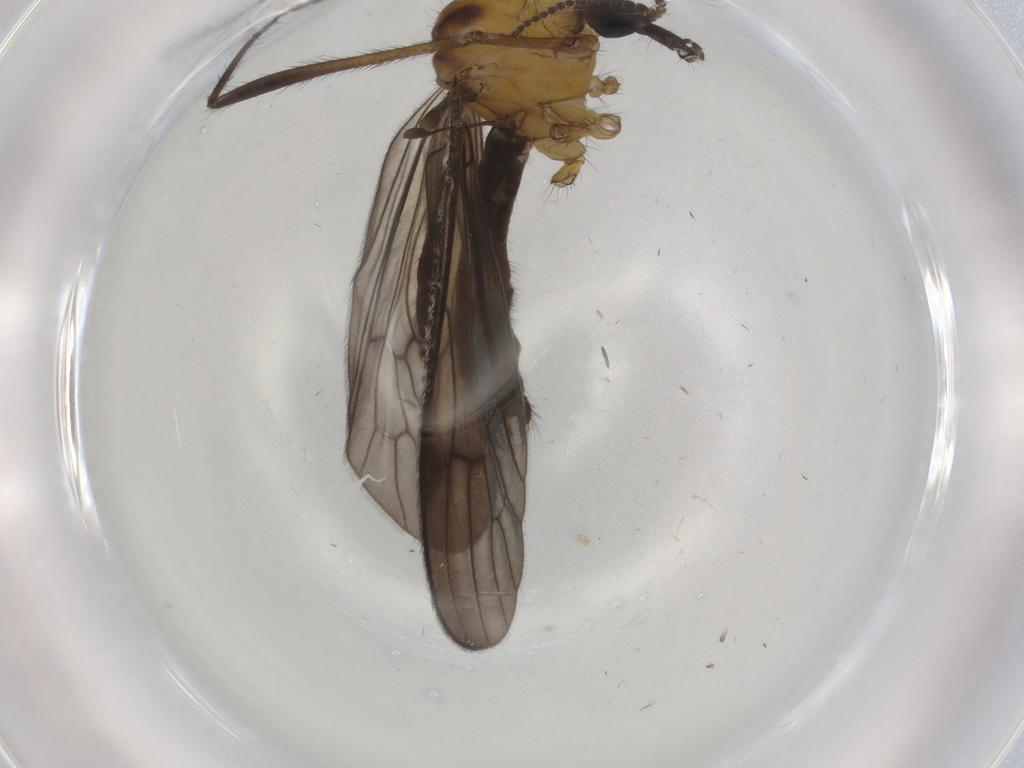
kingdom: Animalia
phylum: Arthropoda
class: Insecta
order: Diptera
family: Limoniidae
